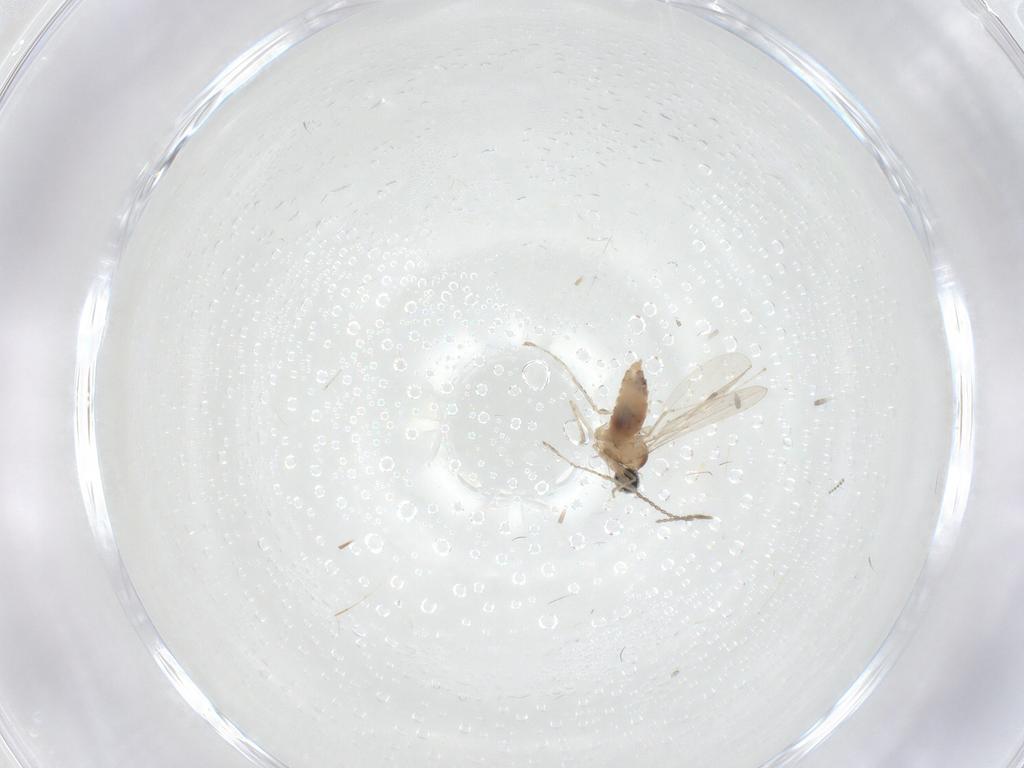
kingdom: Animalia
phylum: Arthropoda
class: Insecta
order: Diptera
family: Chironomidae
